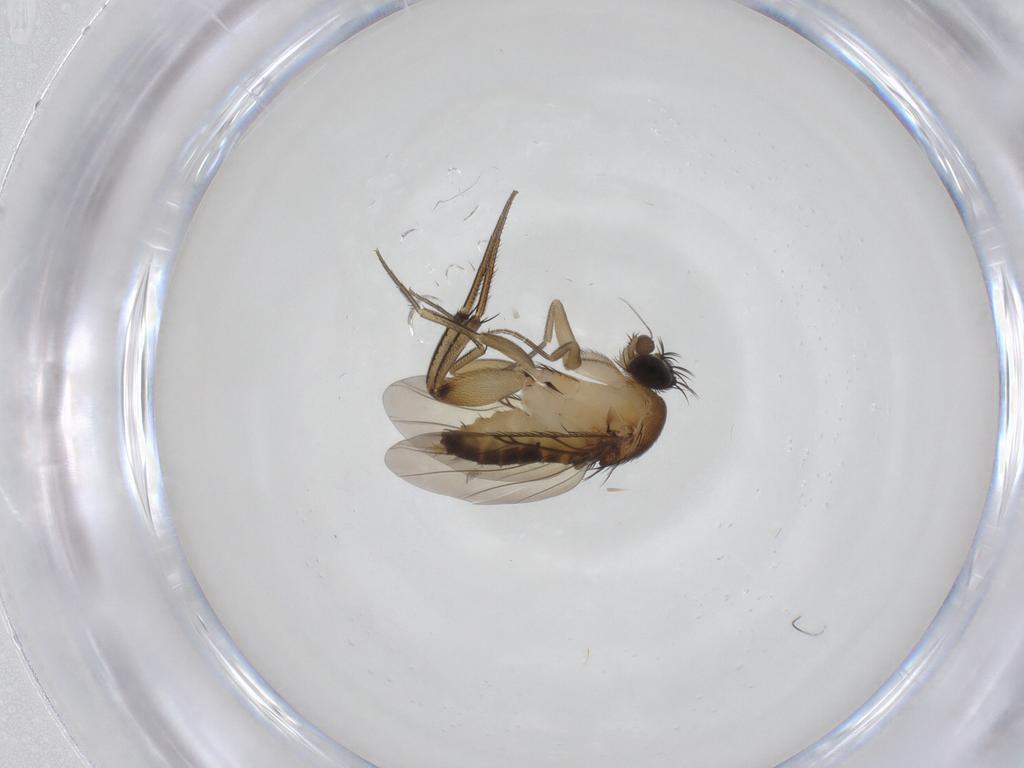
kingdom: Animalia
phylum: Arthropoda
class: Insecta
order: Diptera
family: Phoridae
